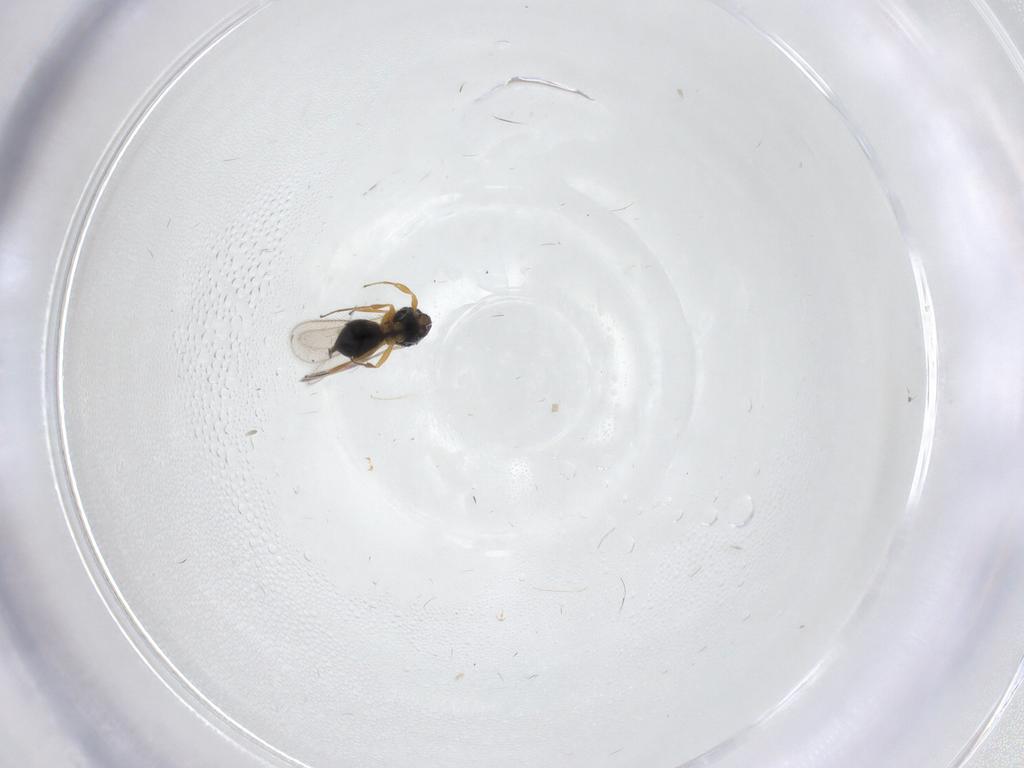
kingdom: Animalia
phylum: Arthropoda
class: Insecta
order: Hymenoptera
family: Scelionidae
